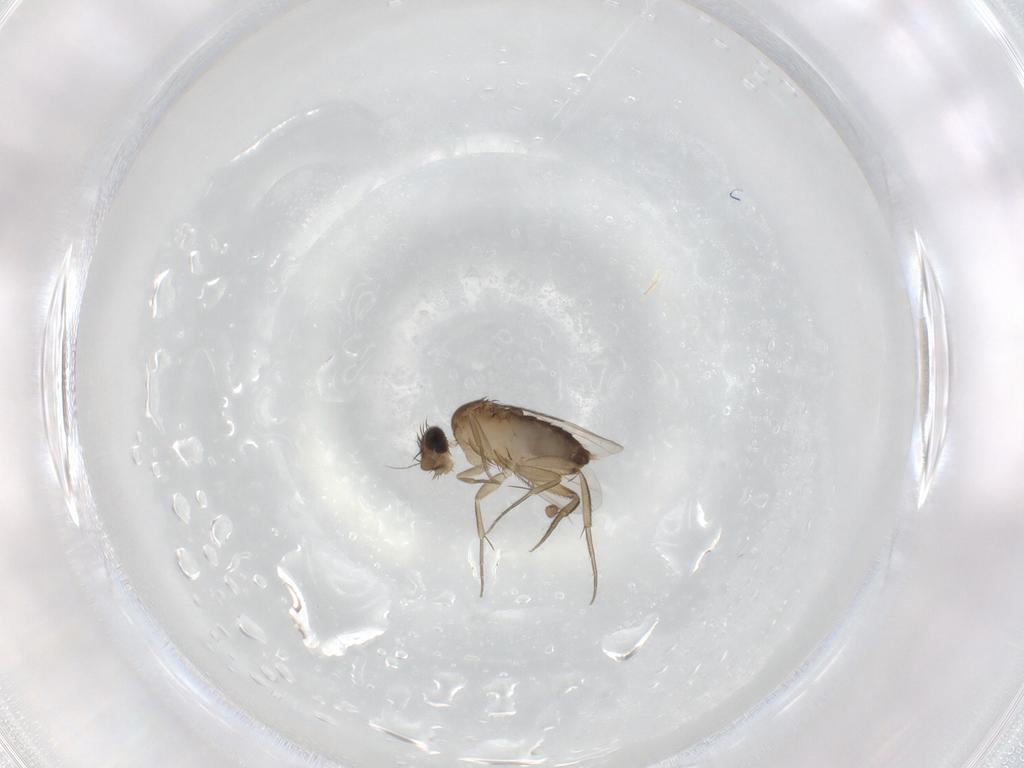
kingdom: Animalia
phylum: Arthropoda
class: Insecta
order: Diptera
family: Phoridae
